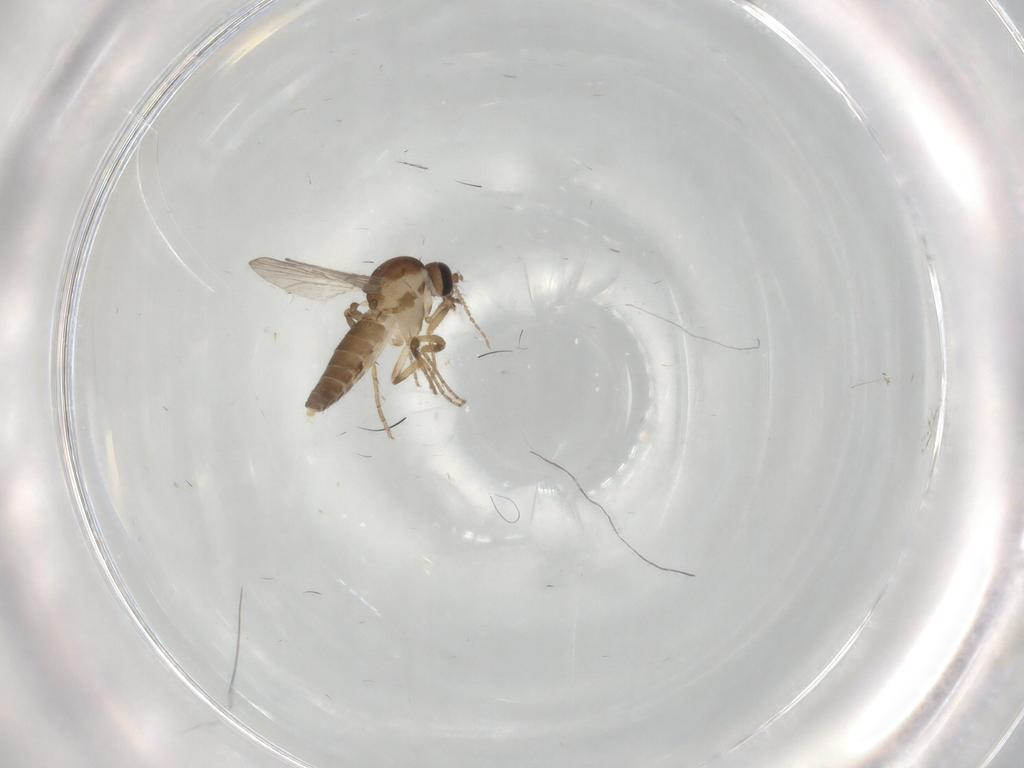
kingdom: Animalia
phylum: Arthropoda
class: Insecta
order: Diptera
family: Ceratopogonidae
